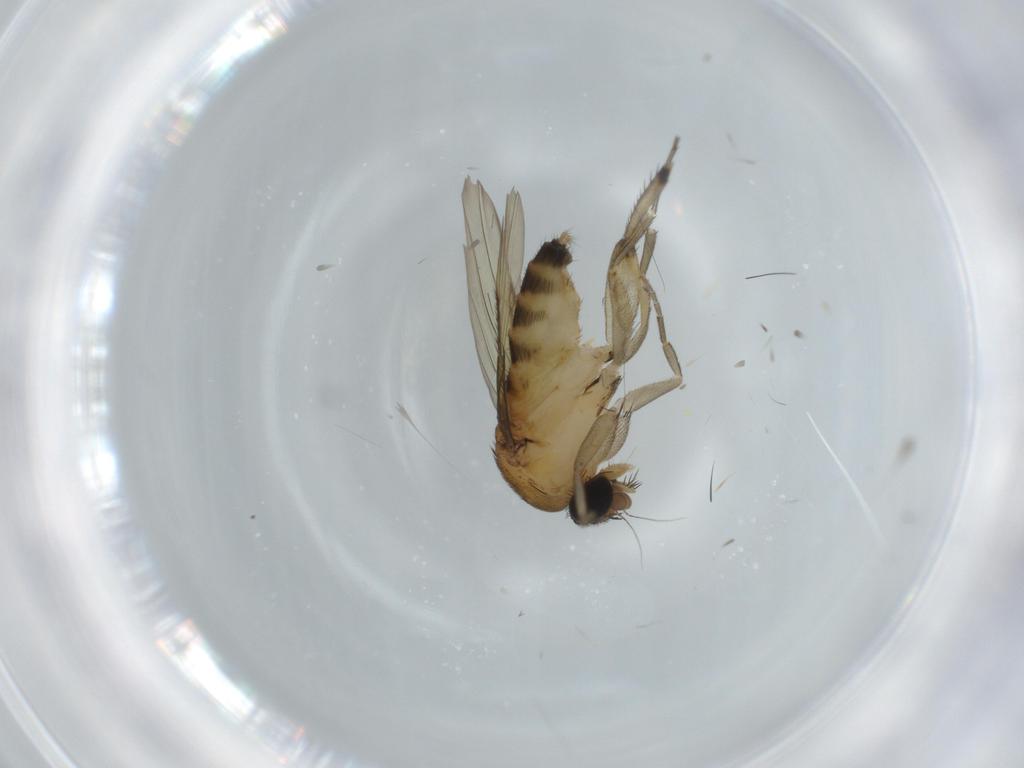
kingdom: Animalia
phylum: Arthropoda
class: Insecta
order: Diptera
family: Phoridae
